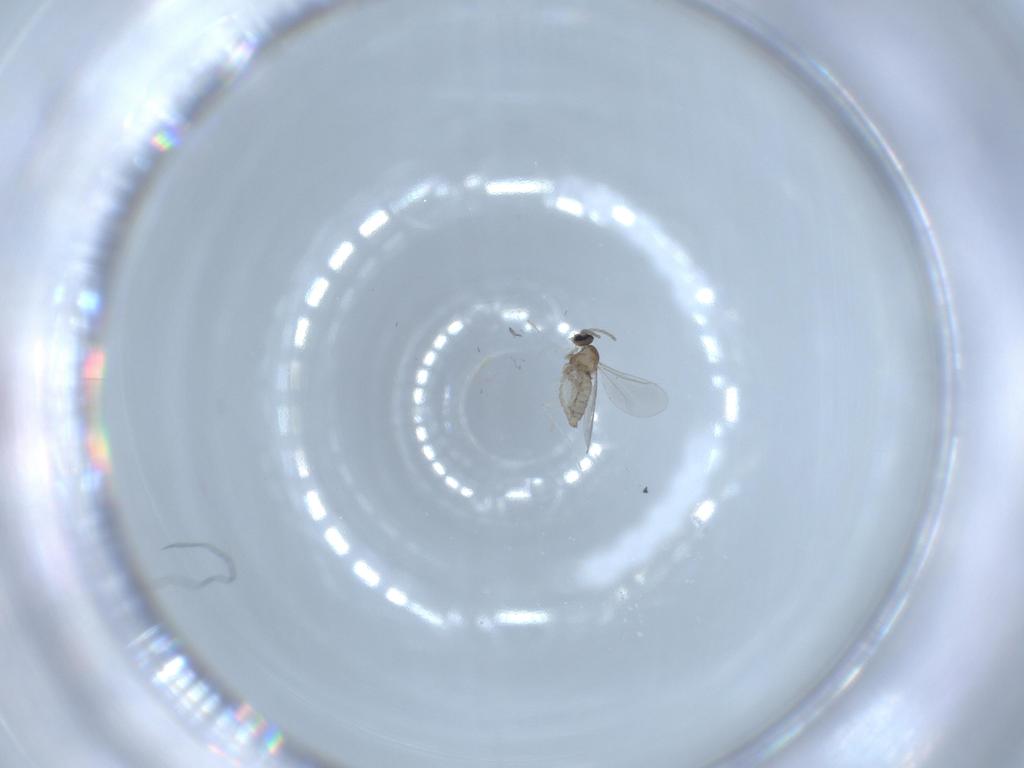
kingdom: Animalia
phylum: Arthropoda
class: Insecta
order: Diptera
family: Cecidomyiidae
